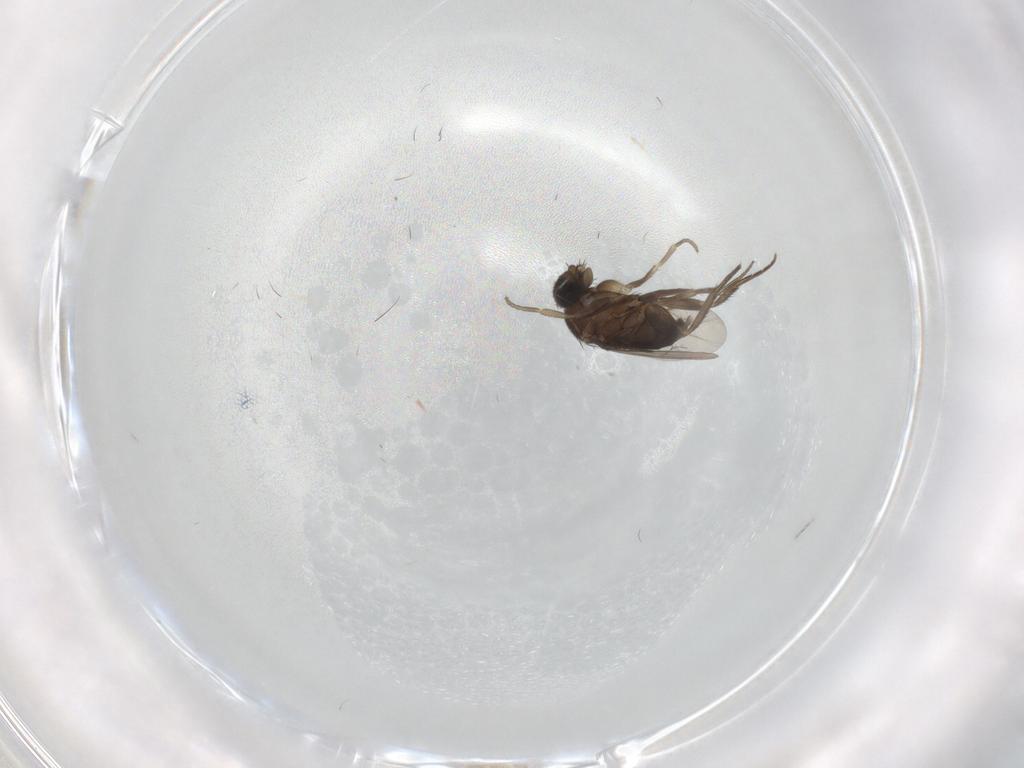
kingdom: Animalia
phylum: Arthropoda
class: Insecta
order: Diptera
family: Phoridae
